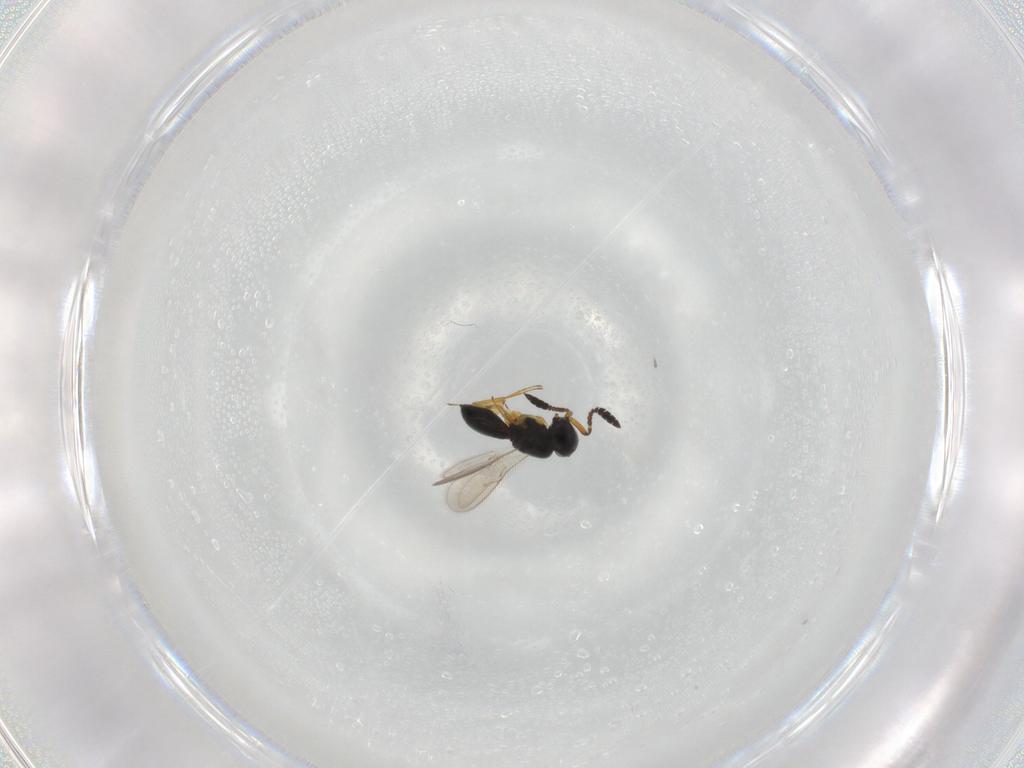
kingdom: Animalia
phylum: Arthropoda
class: Insecta
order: Hymenoptera
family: Scelionidae
